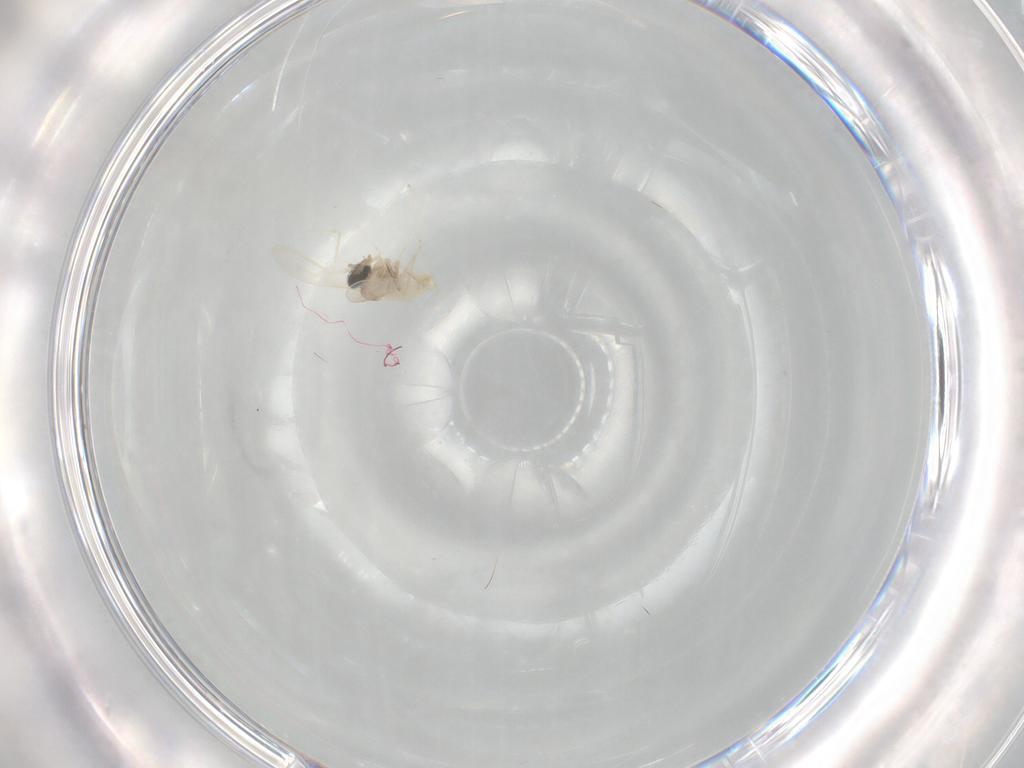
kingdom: Animalia
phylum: Arthropoda
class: Insecta
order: Diptera
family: Cecidomyiidae
